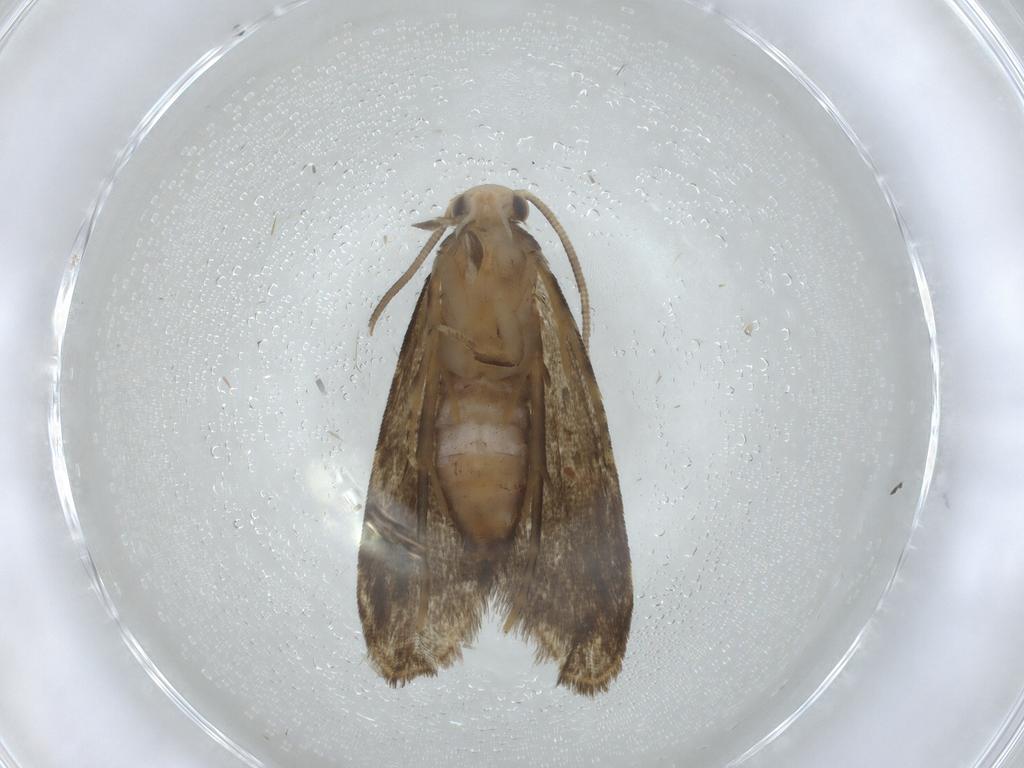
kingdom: Animalia
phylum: Arthropoda
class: Insecta
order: Lepidoptera
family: Dryadaulidae
